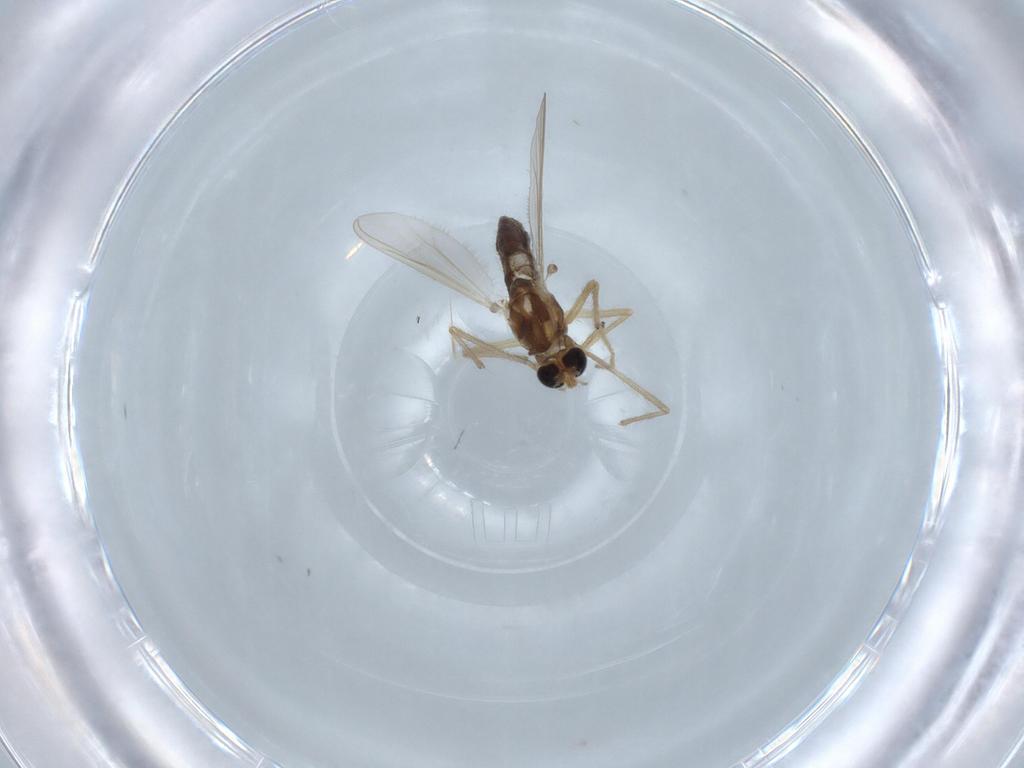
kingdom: Animalia
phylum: Arthropoda
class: Insecta
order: Diptera
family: Chironomidae
